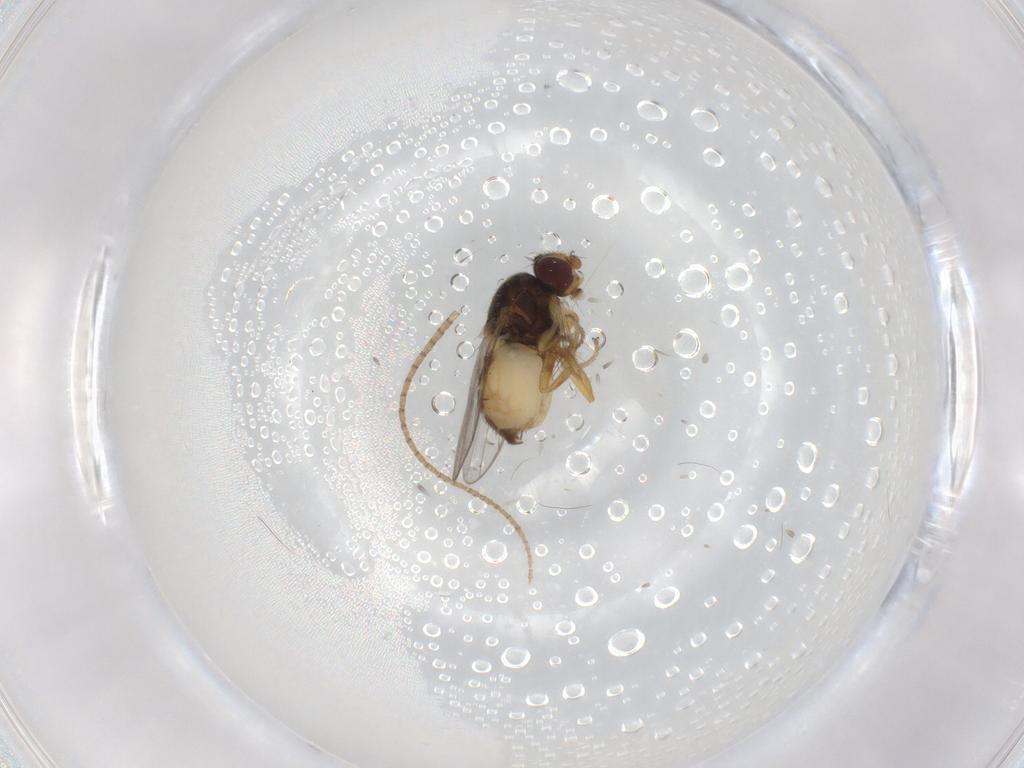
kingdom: Animalia
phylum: Arthropoda
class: Insecta
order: Diptera
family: Chloropidae
